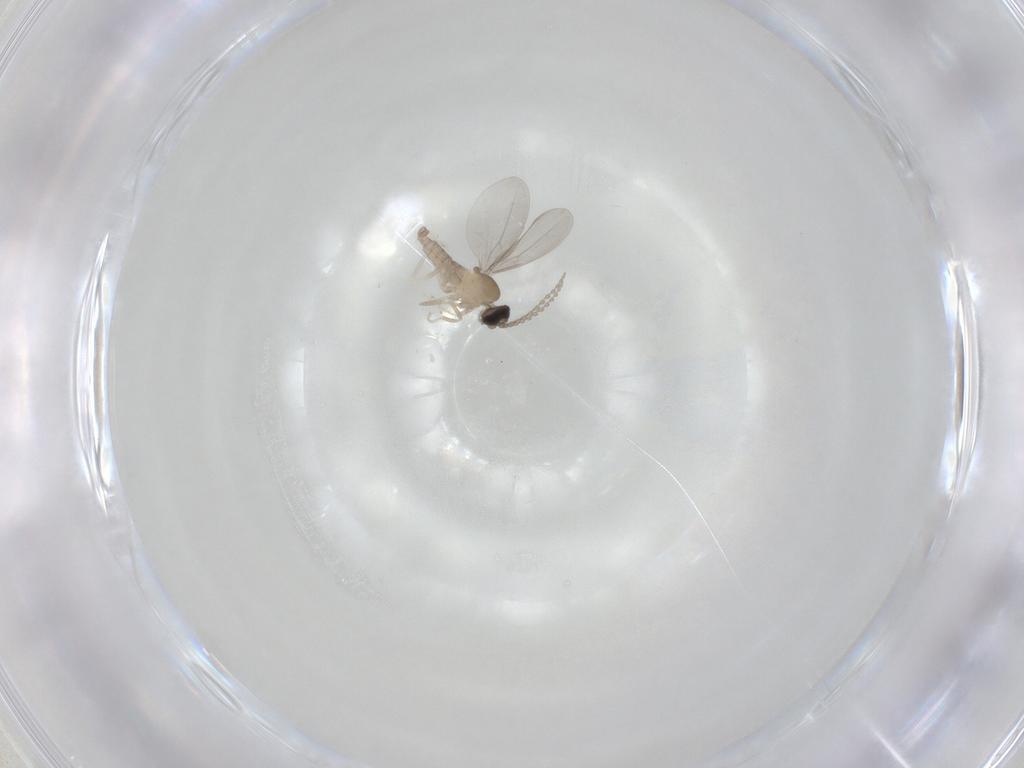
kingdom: Animalia
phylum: Arthropoda
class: Insecta
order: Diptera
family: Cecidomyiidae
